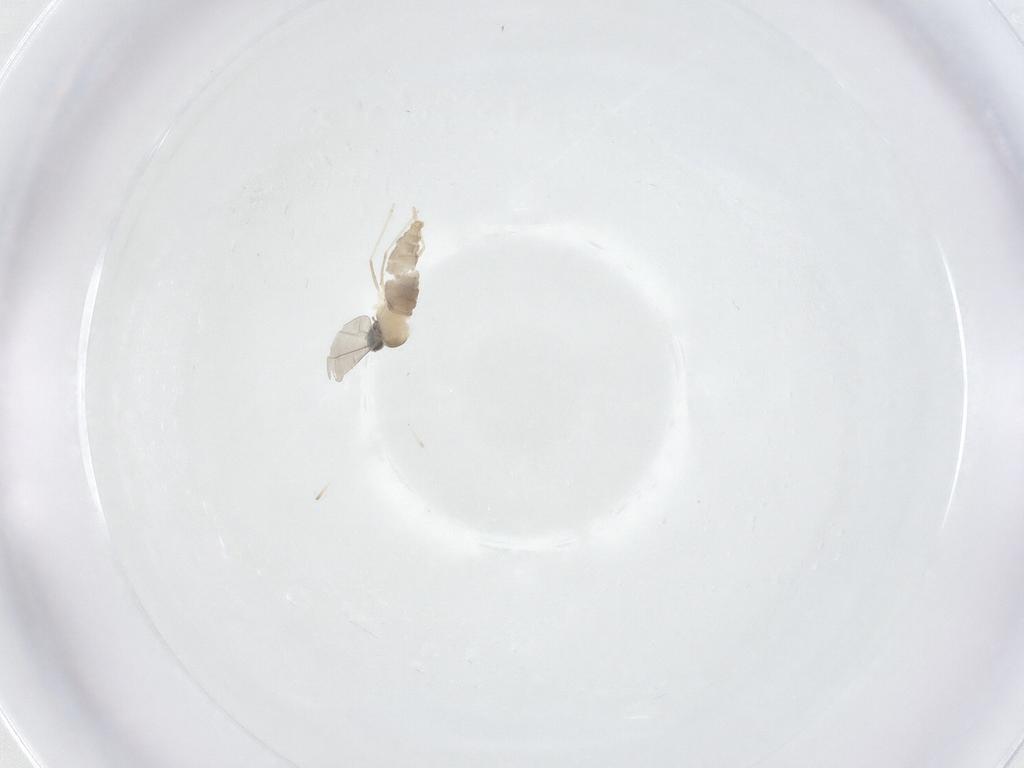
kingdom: Animalia
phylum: Arthropoda
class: Insecta
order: Diptera
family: Cecidomyiidae
